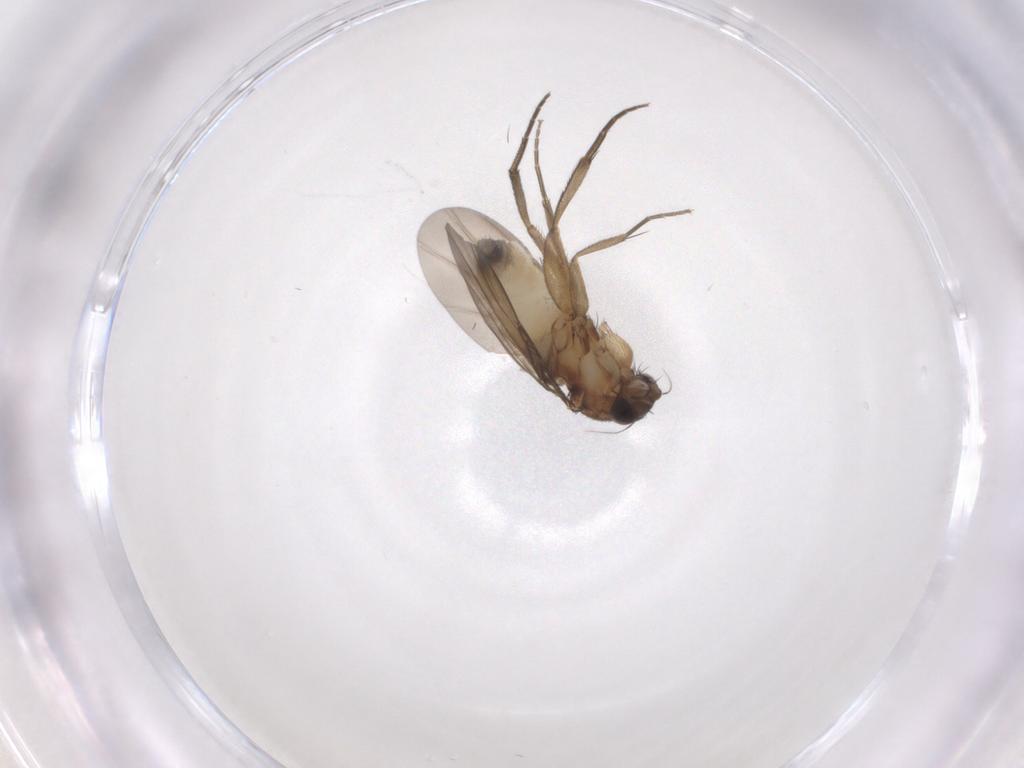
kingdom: Animalia
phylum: Arthropoda
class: Insecta
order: Diptera
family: Phoridae
